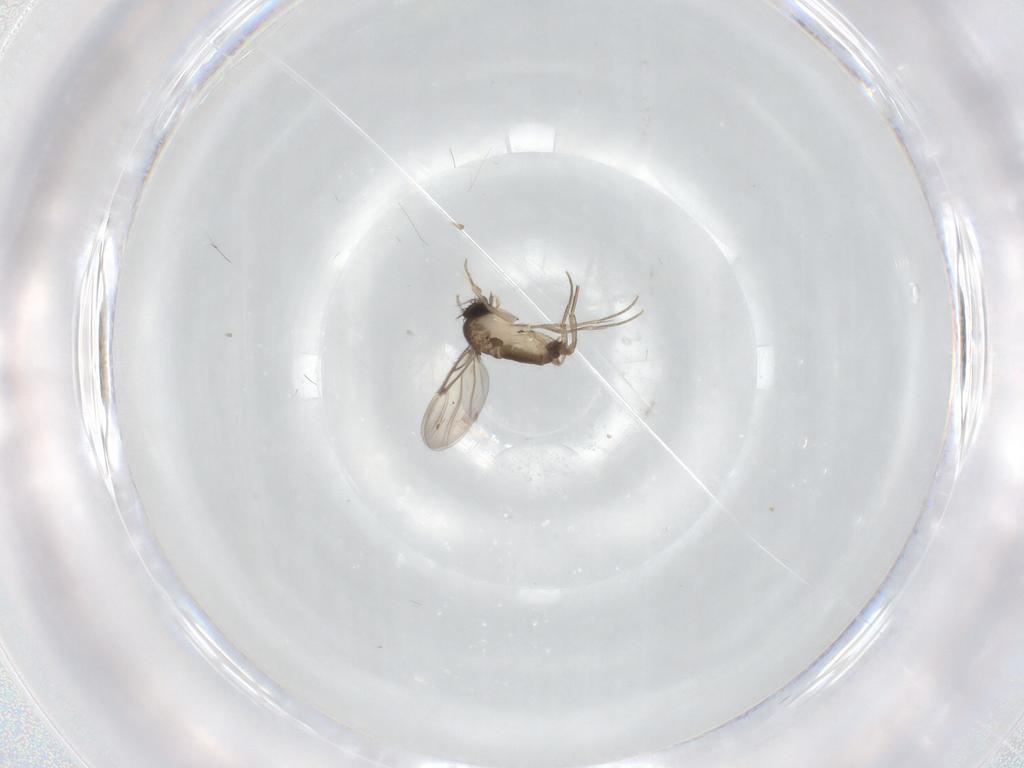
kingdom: Animalia
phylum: Arthropoda
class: Insecta
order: Diptera
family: Phoridae
